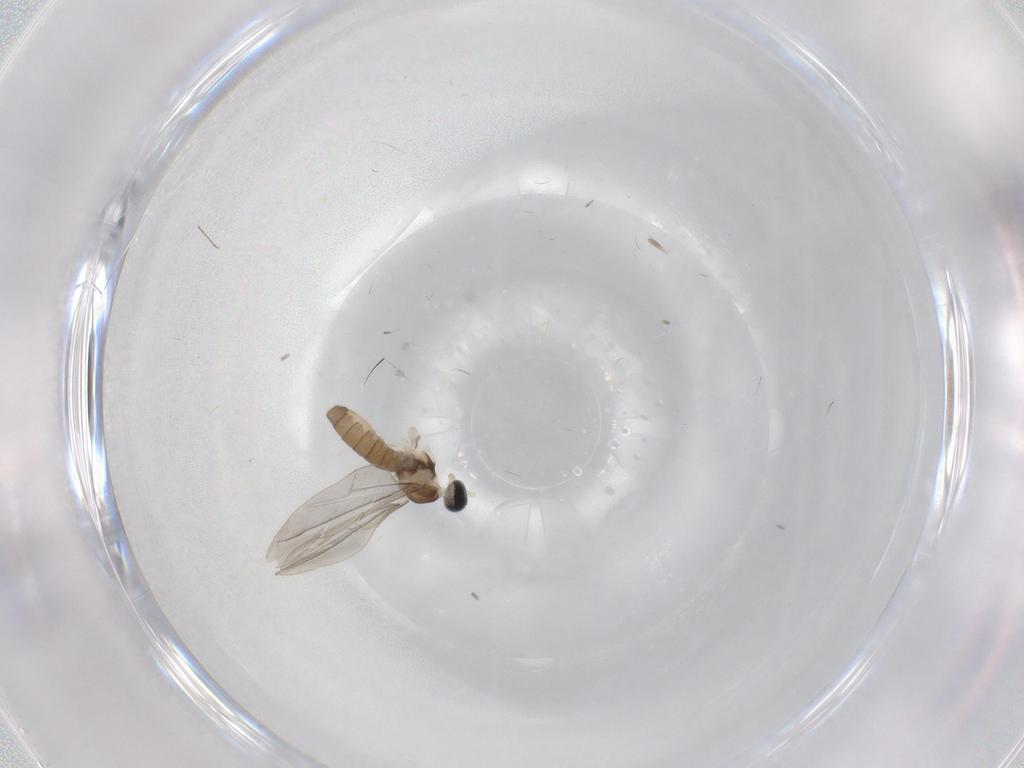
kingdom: Animalia
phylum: Arthropoda
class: Insecta
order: Diptera
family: Cecidomyiidae
